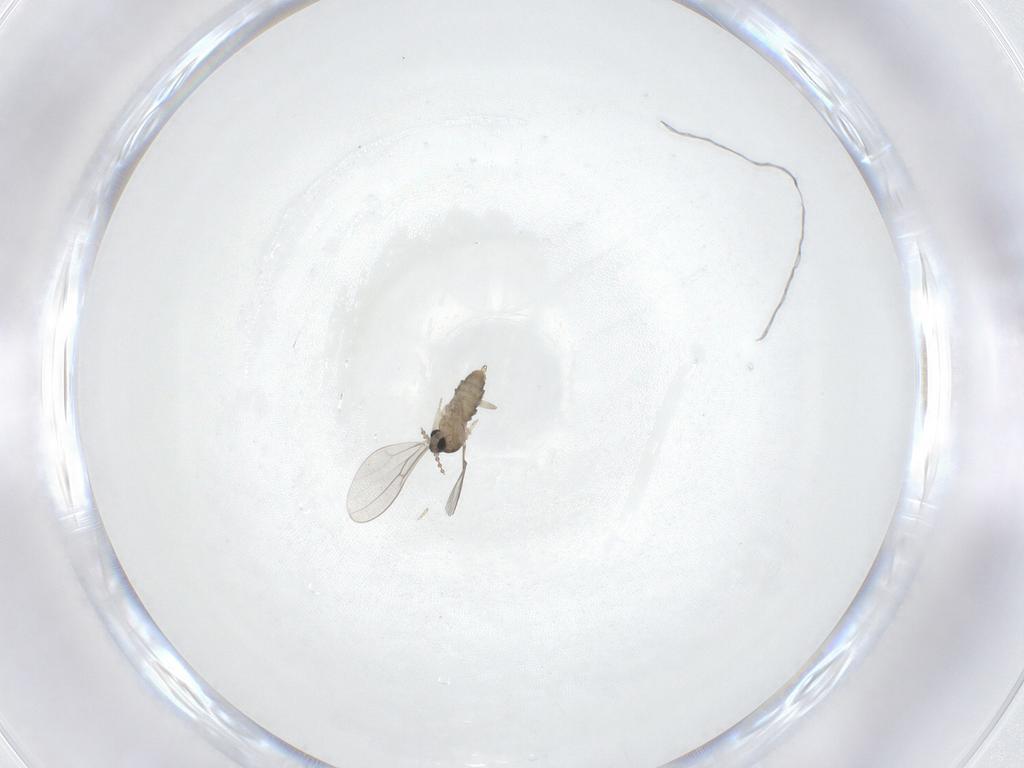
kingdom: Animalia
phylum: Arthropoda
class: Insecta
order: Diptera
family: Cecidomyiidae
